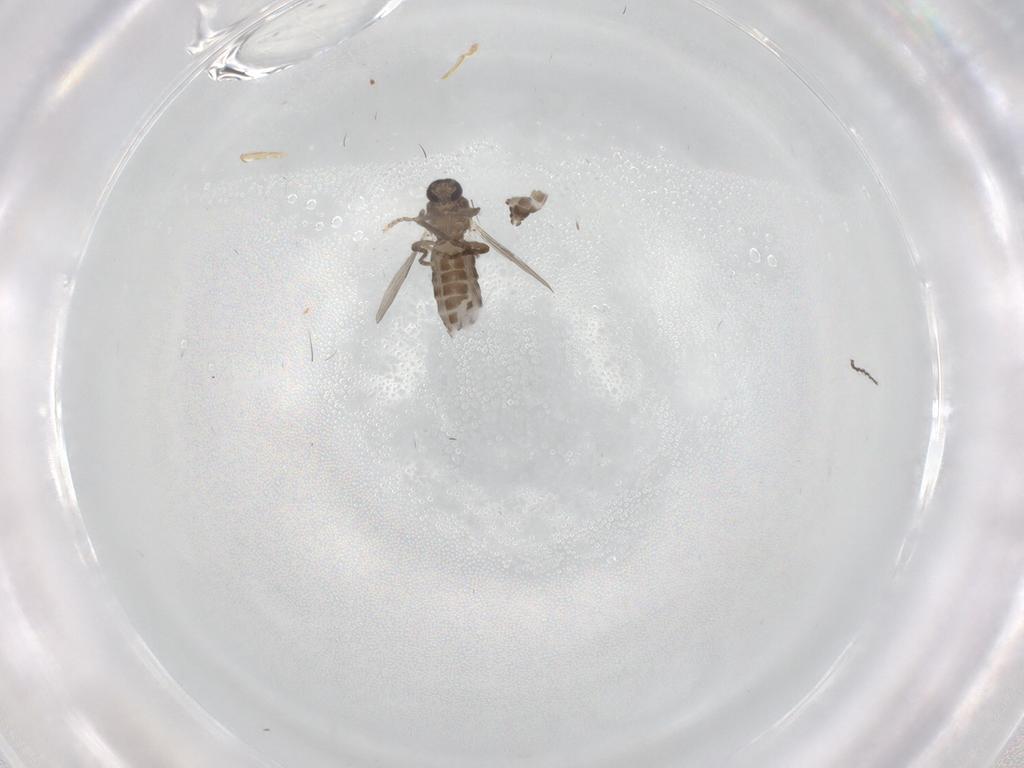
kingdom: Animalia
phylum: Arthropoda
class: Insecta
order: Diptera
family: Ceratopogonidae
